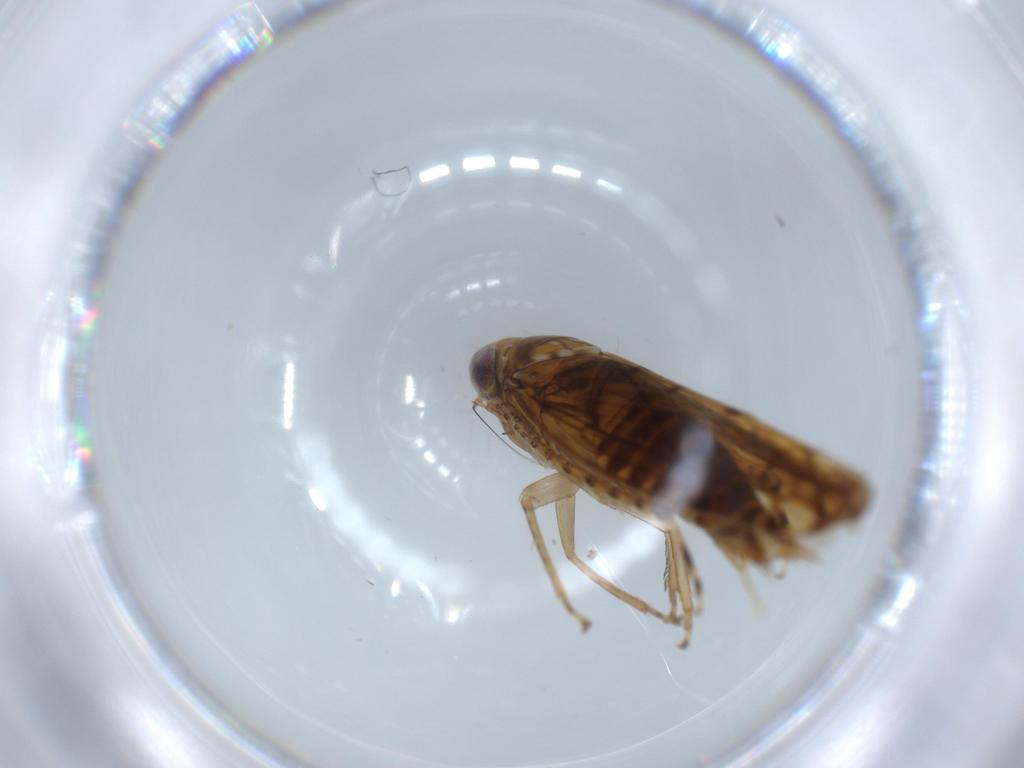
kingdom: Animalia
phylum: Arthropoda
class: Insecta
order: Hemiptera
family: Cicadellidae
